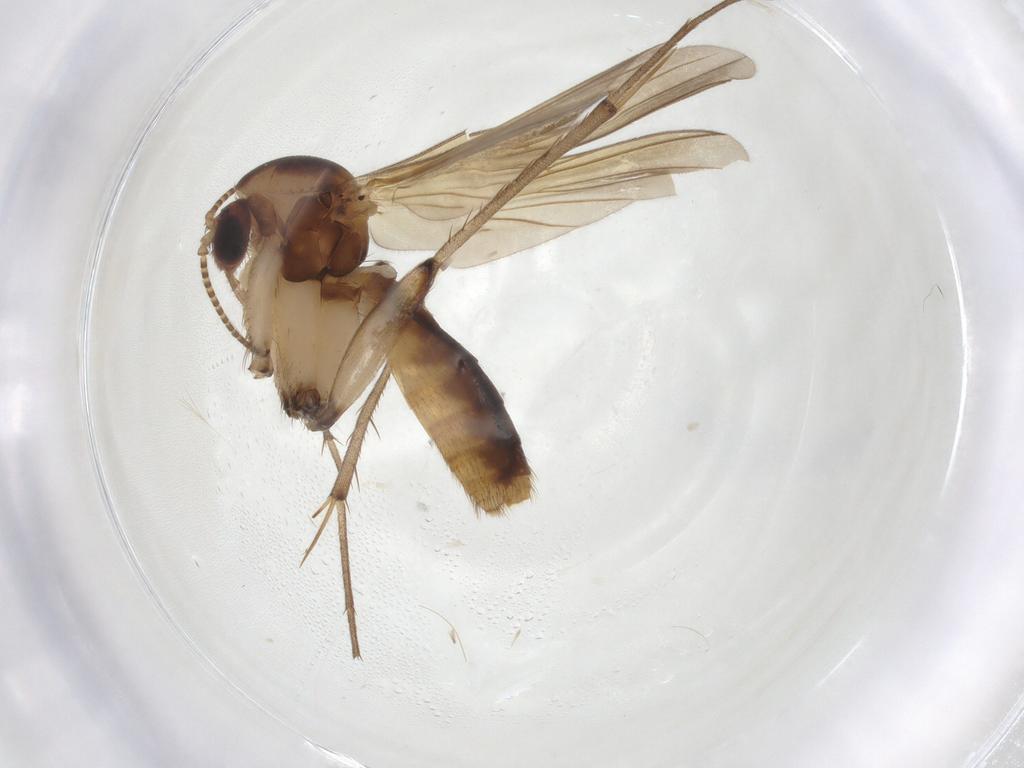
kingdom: Animalia
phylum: Arthropoda
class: Insecta
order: Diptera
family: Mycetophilidae
